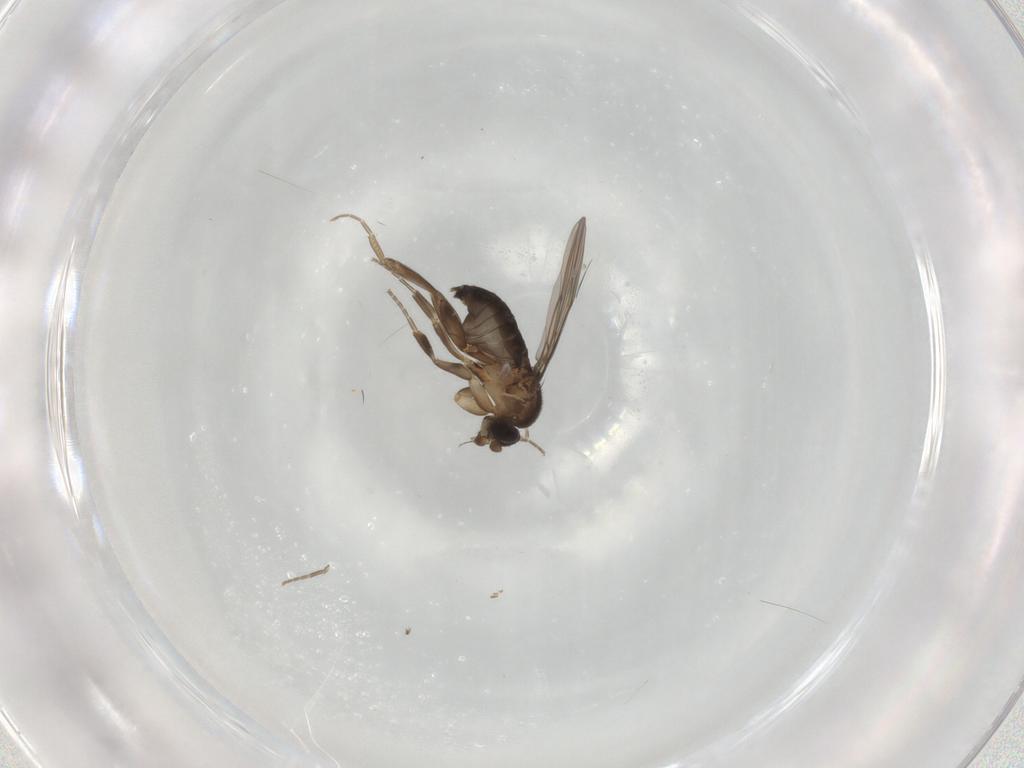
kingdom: Animalia
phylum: Arthropoda
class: Insecta
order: Diptera
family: Phoridae
